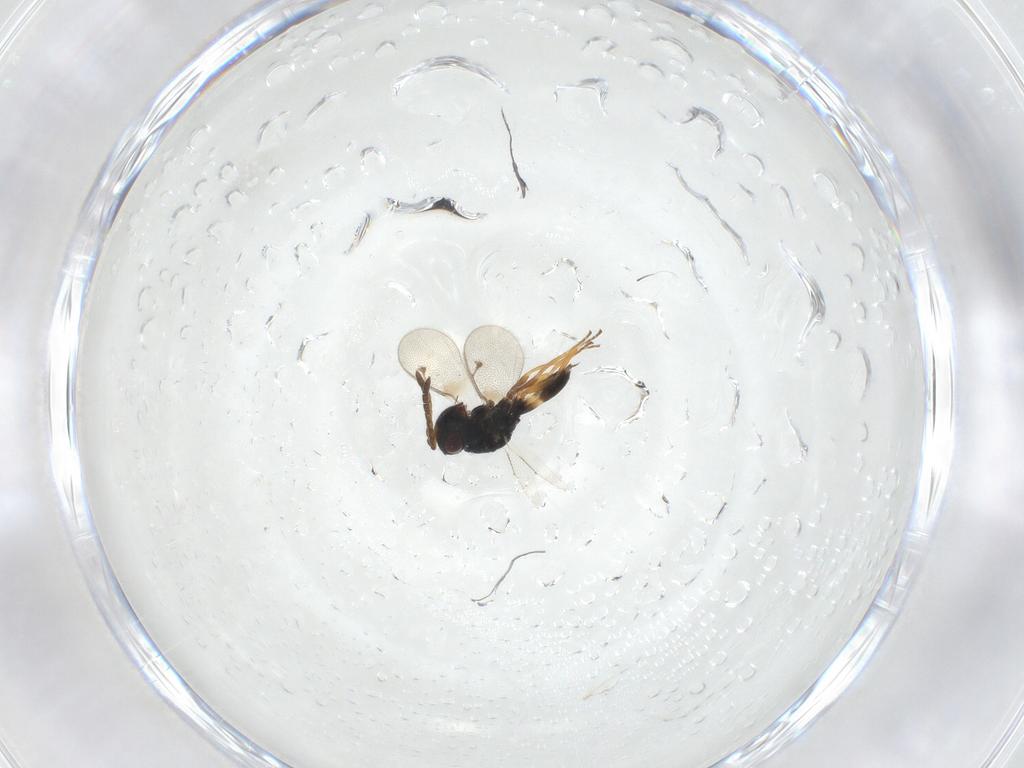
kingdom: Animalia
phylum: Arthropoda
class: Insecta
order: Hymenoptera
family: Pteromalidae
